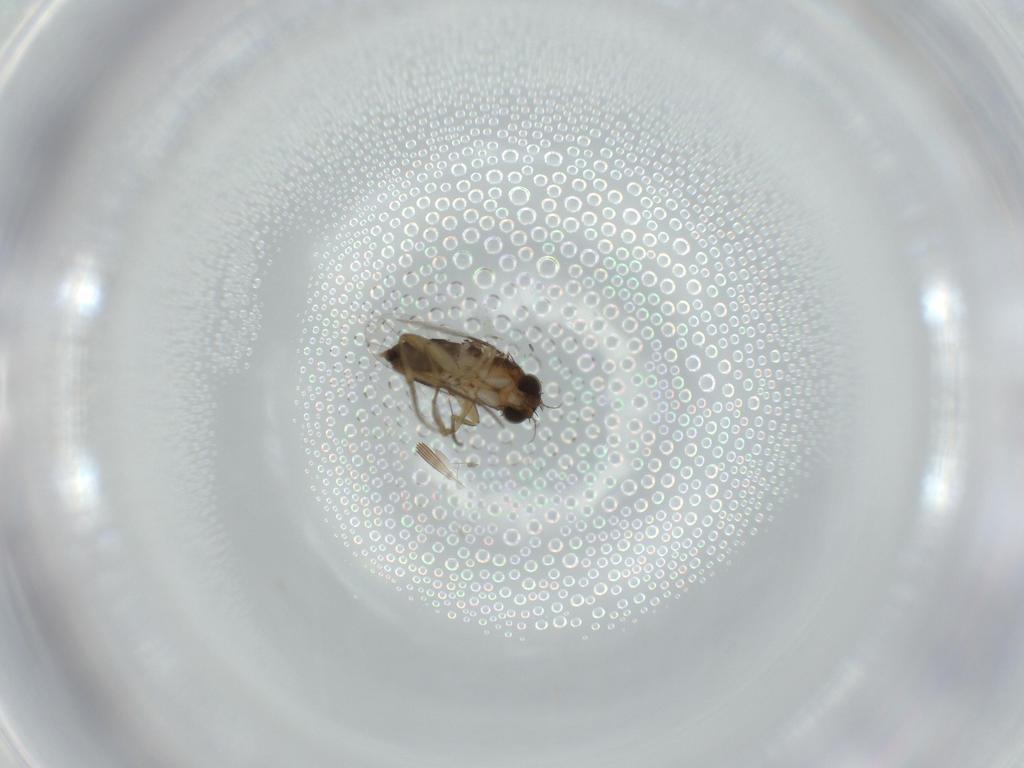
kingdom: Animalia
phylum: Arthropoda
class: Insecta
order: Diptera
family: Phoridae
